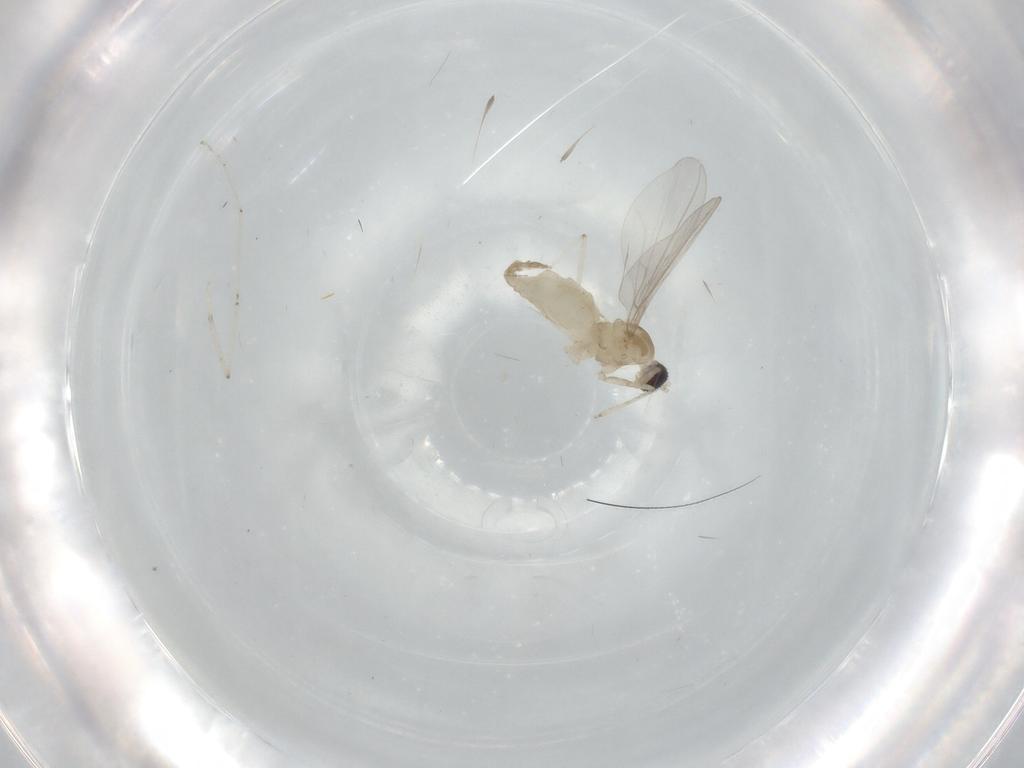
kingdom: Animalia
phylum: Arthropoda
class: Insecta
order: Diptera
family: Cecidomyiidae
